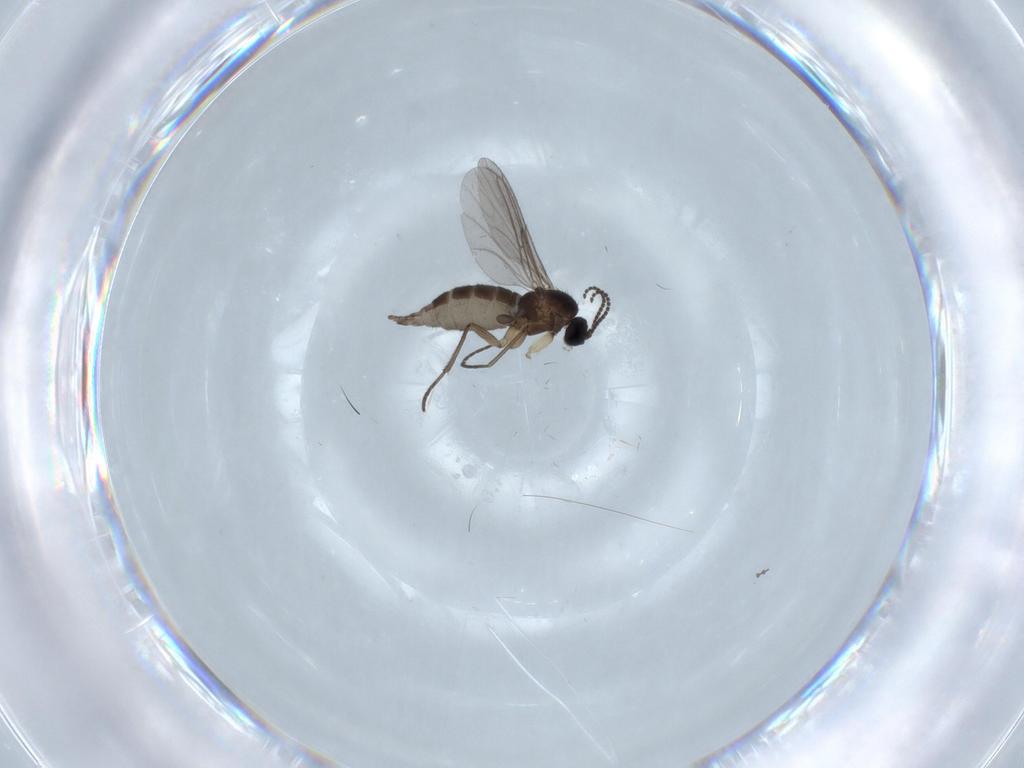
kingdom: Animalia
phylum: Arthropoda
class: Insecta
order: Diptera
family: Sciaridae
